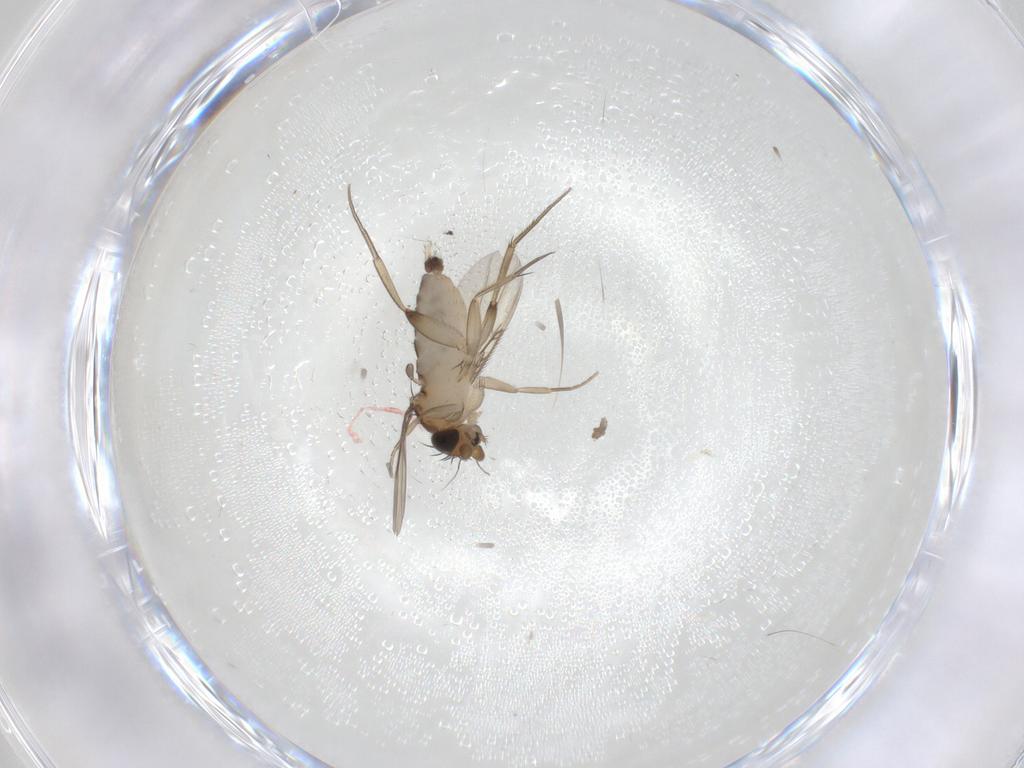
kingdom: Animalia
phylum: Arthropoda
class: Insecta
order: Diptera
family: Phoridae
